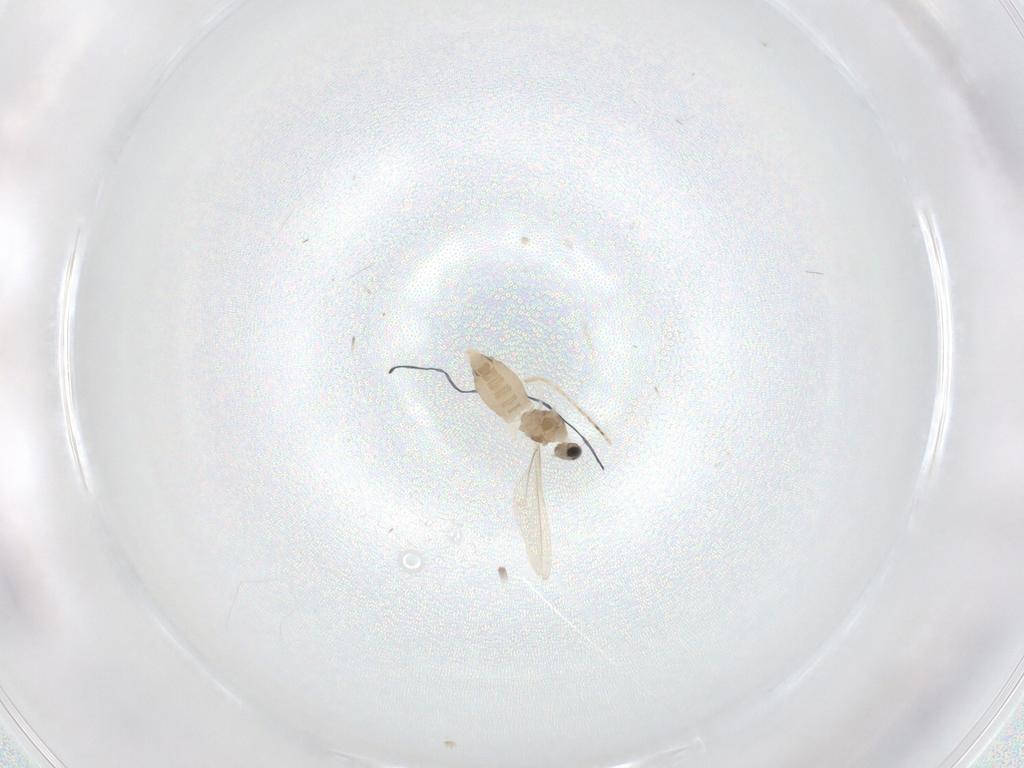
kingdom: Animalia
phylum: Arthropoda
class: Insecta
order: Diptera
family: Cecidomyiidae
